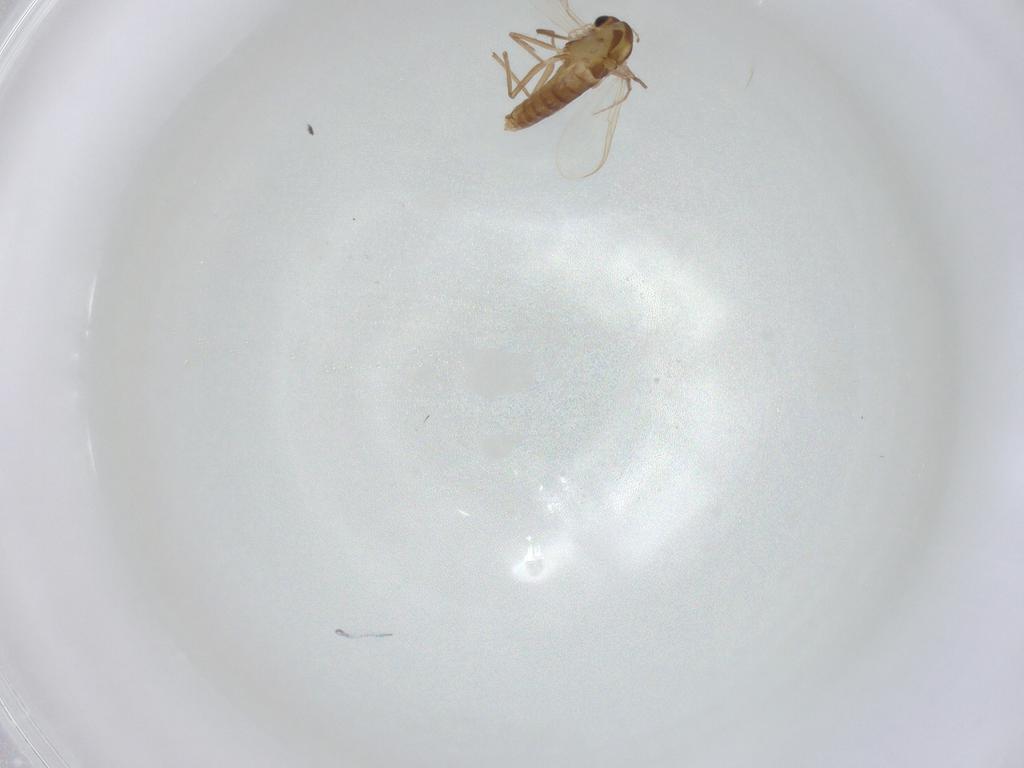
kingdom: Animalia
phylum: Arthropoda
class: Insecta
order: Diptera
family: Chironomidae
